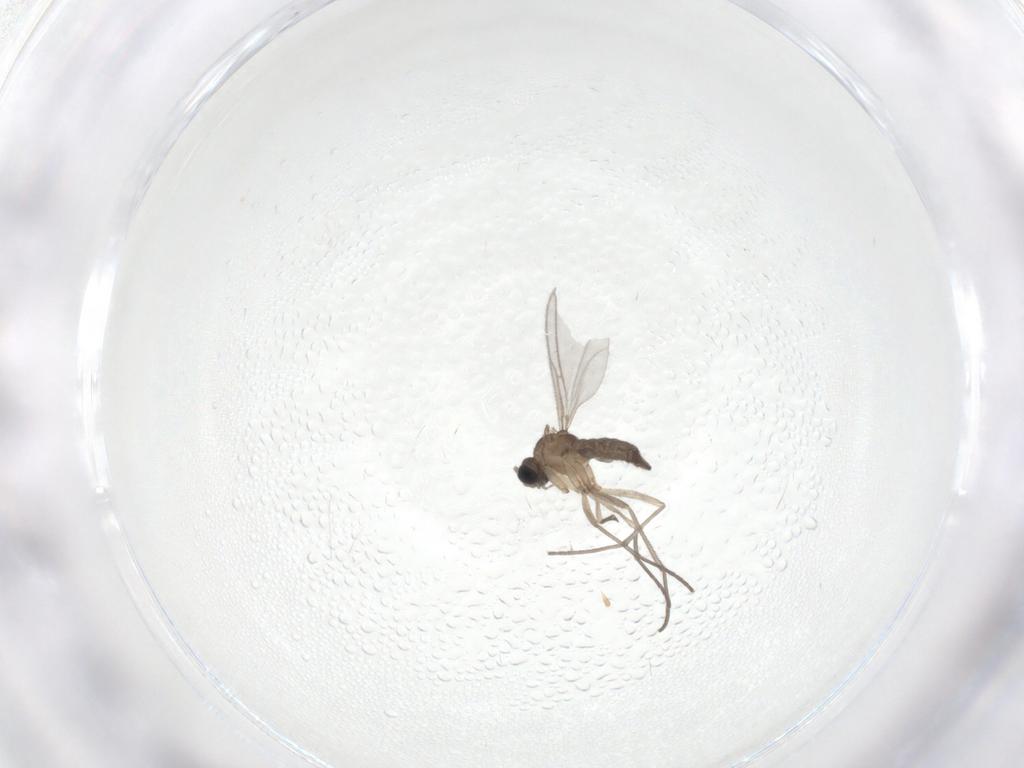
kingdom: Animalia
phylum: Arthropoda
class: Insecta
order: Diptera
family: Sciaridae
